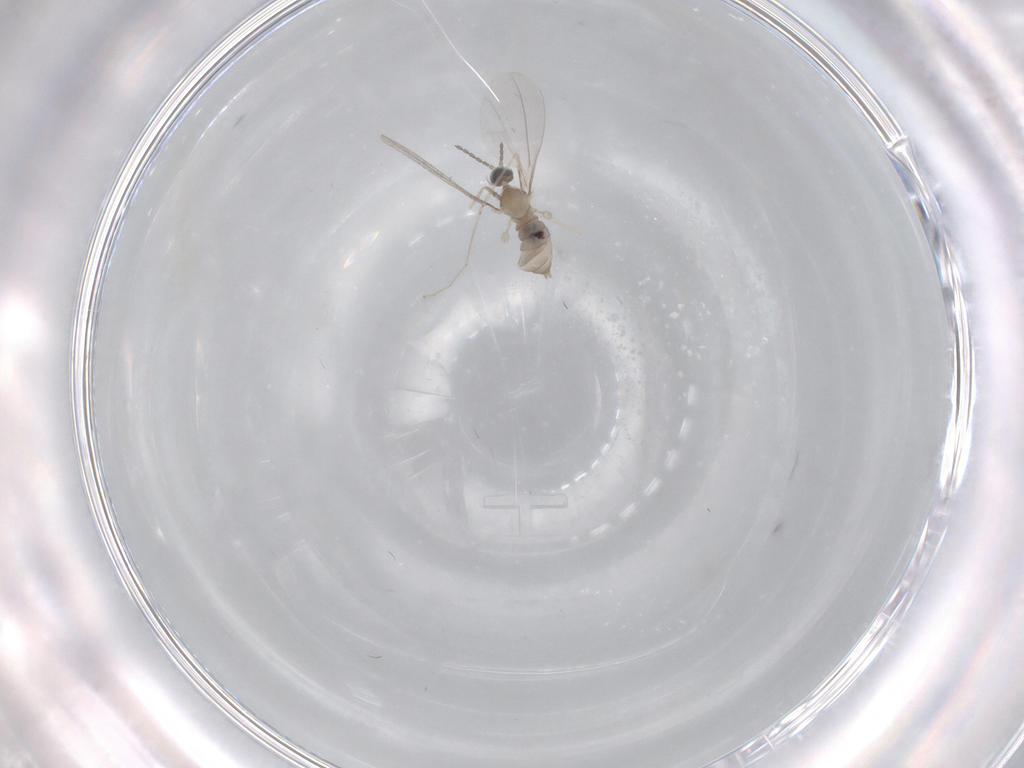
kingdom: Animalia
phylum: Arthropoda
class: Insecta
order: Diptera
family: Cecidomyiidae
